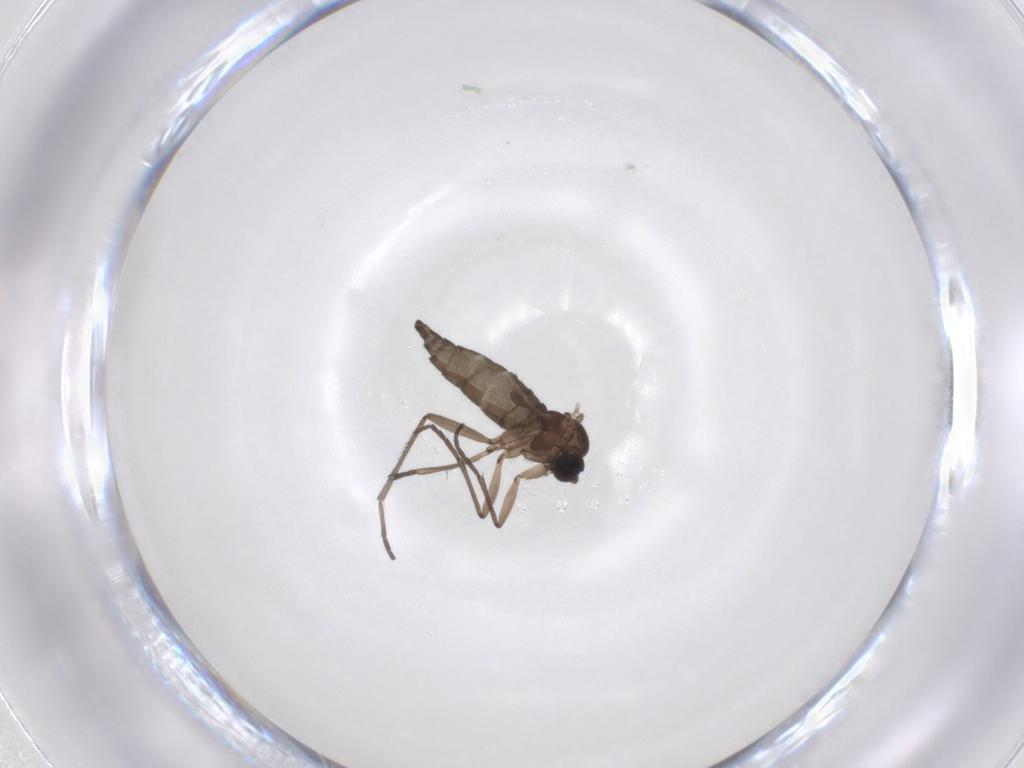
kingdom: Animalia
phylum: Arthropoda
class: Insecta
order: Diptera
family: Sciaridae
